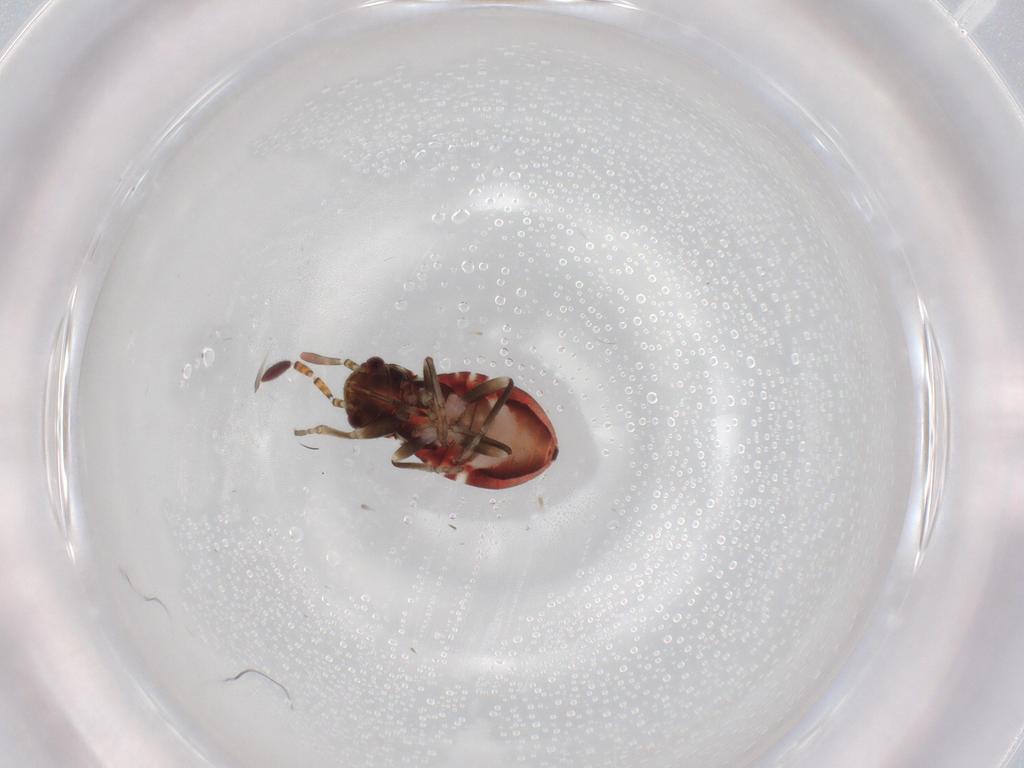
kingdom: Animalia
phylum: Arthropoda
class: Insecta
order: Hemiptera
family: Rhyparochromidae
